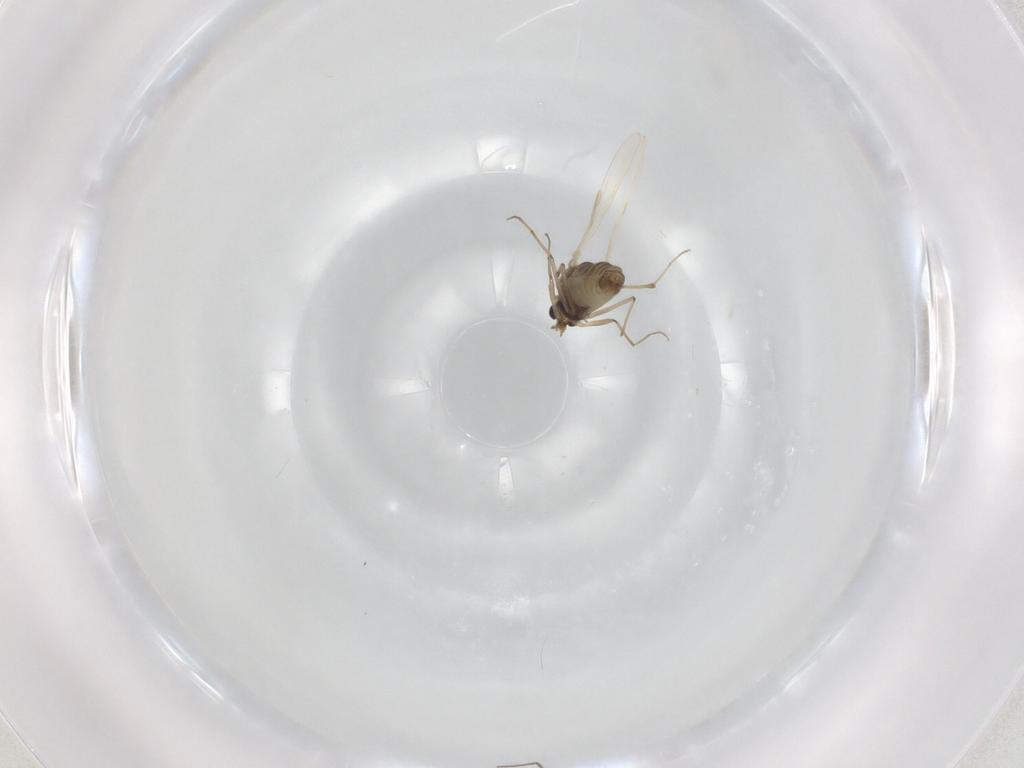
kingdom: Animalia
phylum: Arthropoda
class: Insecta
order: Diptera
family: Chironomidae
